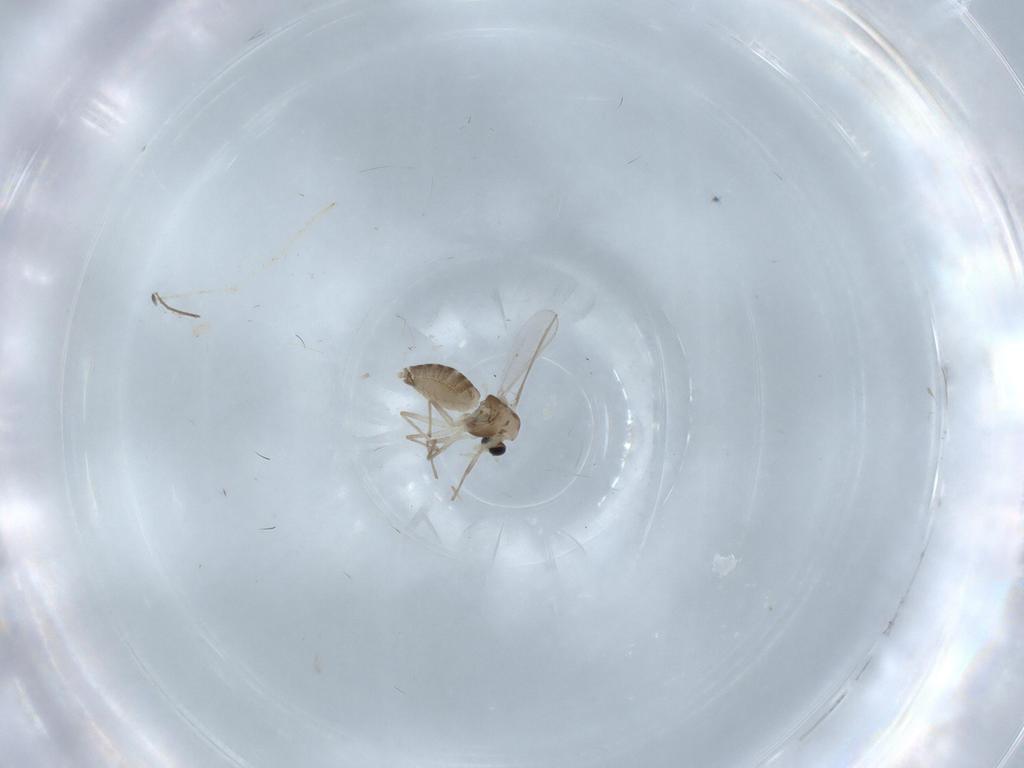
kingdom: Animalia
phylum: Arthropoda
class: Insecta
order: Diptera
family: Chironomidae
